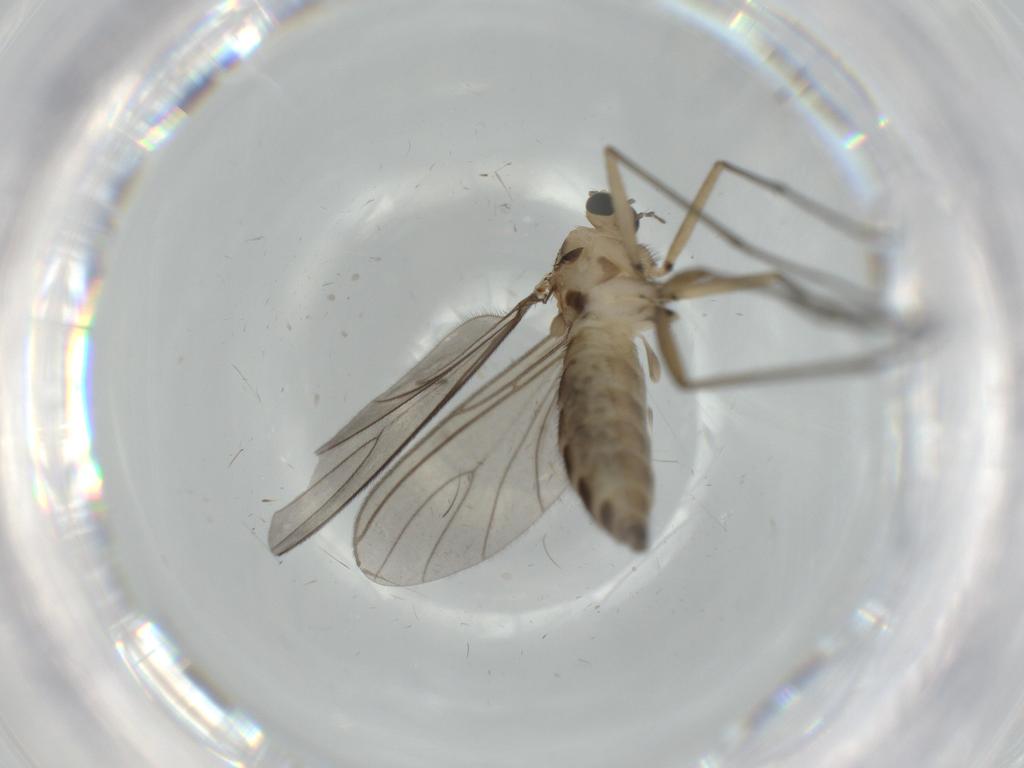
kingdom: Animalia
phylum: Arthropoda
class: Insecta
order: Diptera
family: Sciaridae
